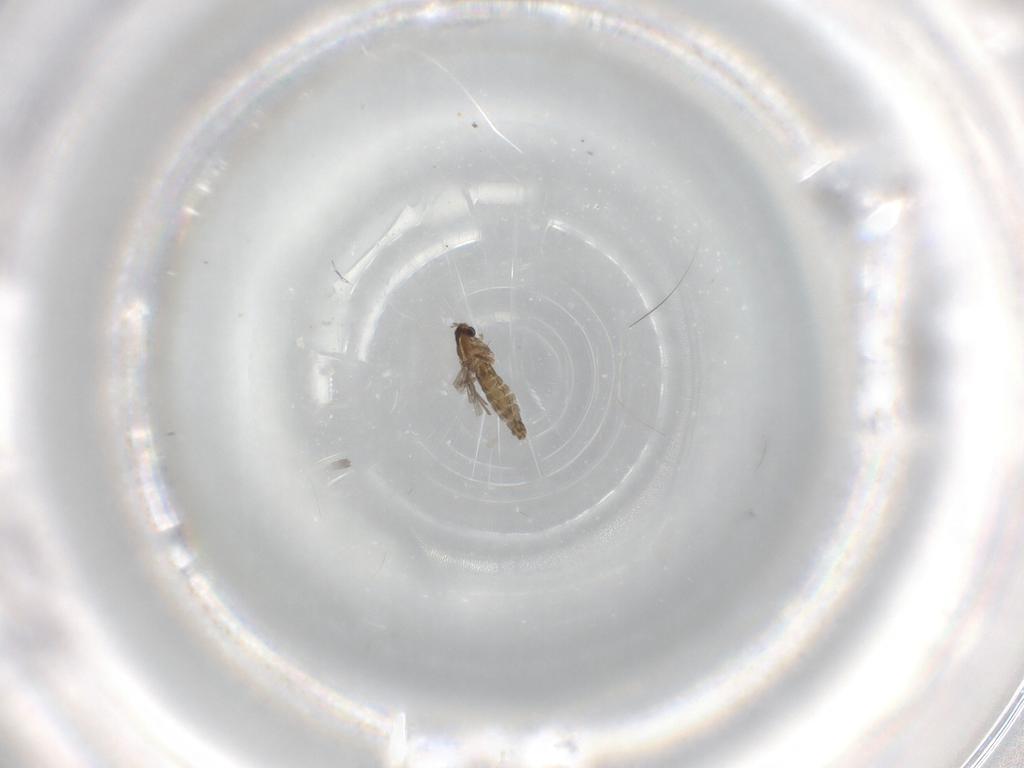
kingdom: Animalia
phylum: Arthropoda
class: Insecta
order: Diptera
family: Chironomidae
